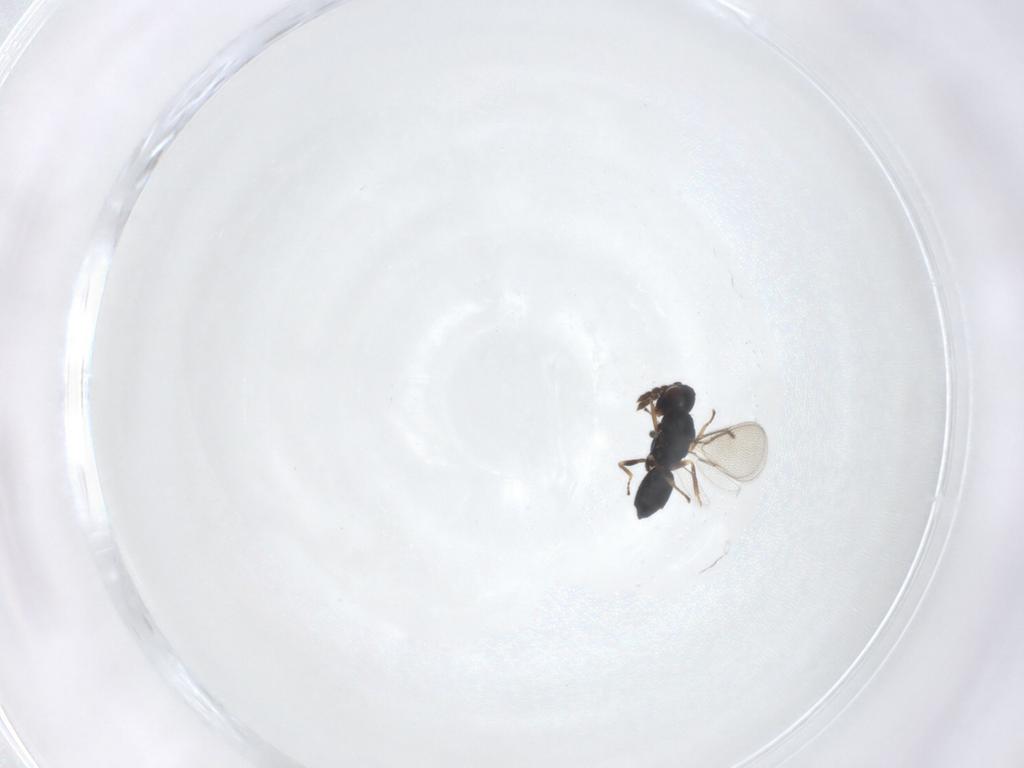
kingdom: Animalia
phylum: Arthropoda
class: Insecta
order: Hymenoptera
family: Eulophidae
